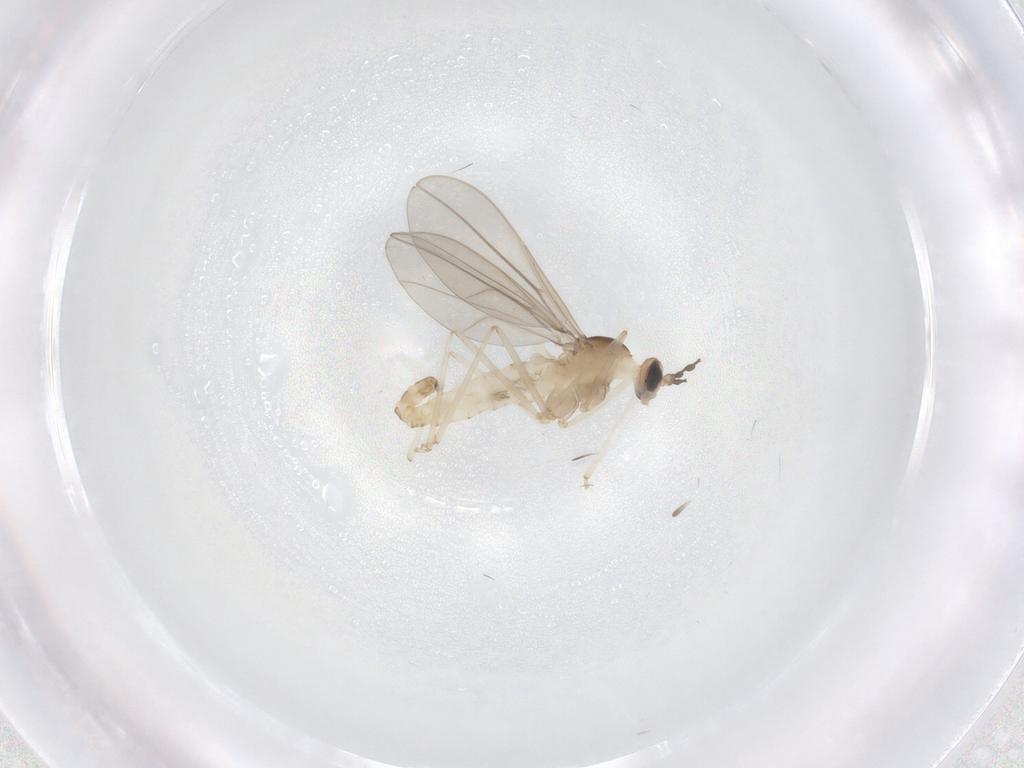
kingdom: Animalia
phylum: Arthropoda
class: Insecta
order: Diptera
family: Cecidomyiidae
